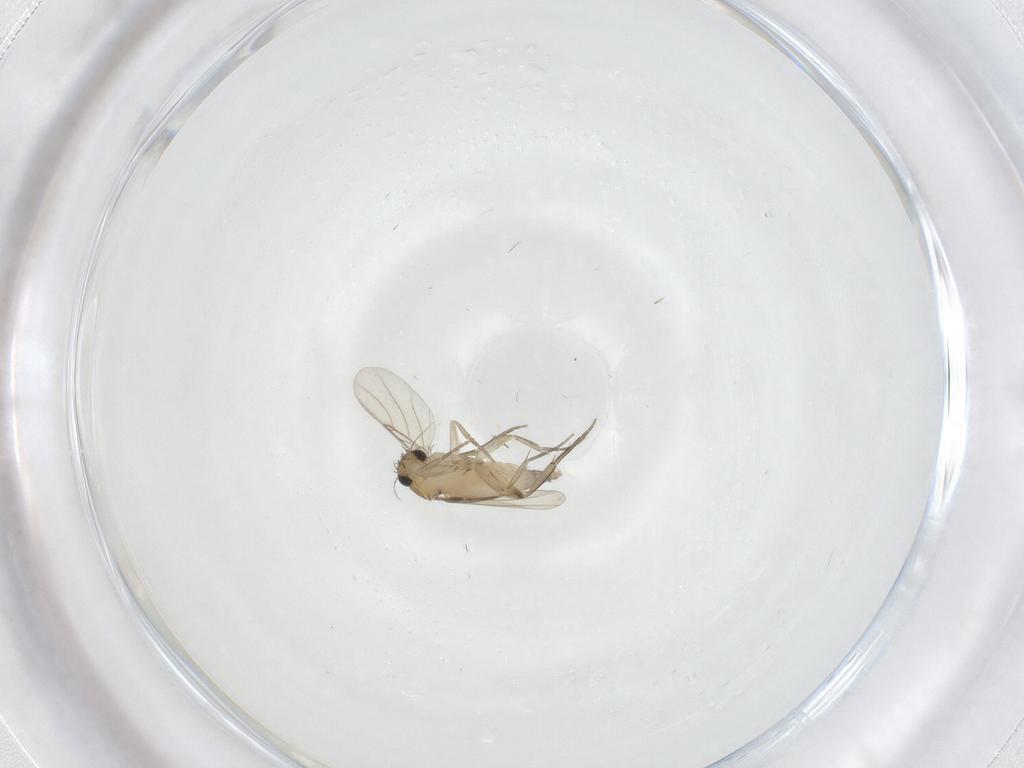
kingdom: Animalia
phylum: Arthropoda
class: Insecta
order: Diptera
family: Phoridae
